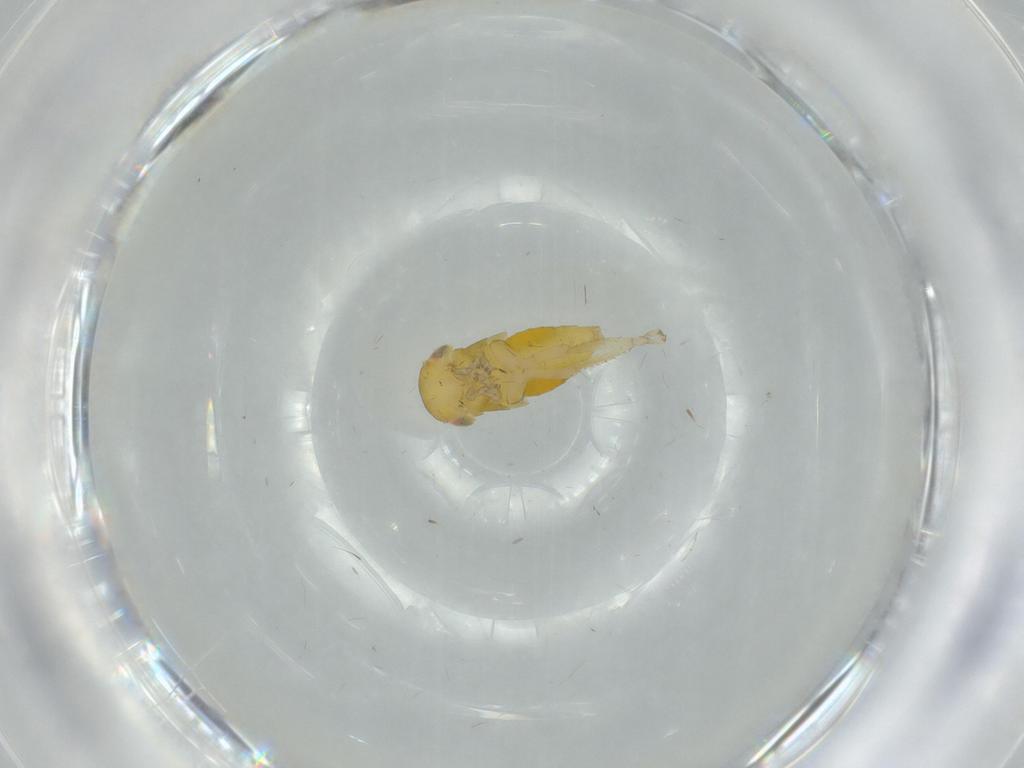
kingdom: Animalia
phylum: Arthropoda
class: Insecta
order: Hemiptera
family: Cicadellidae
